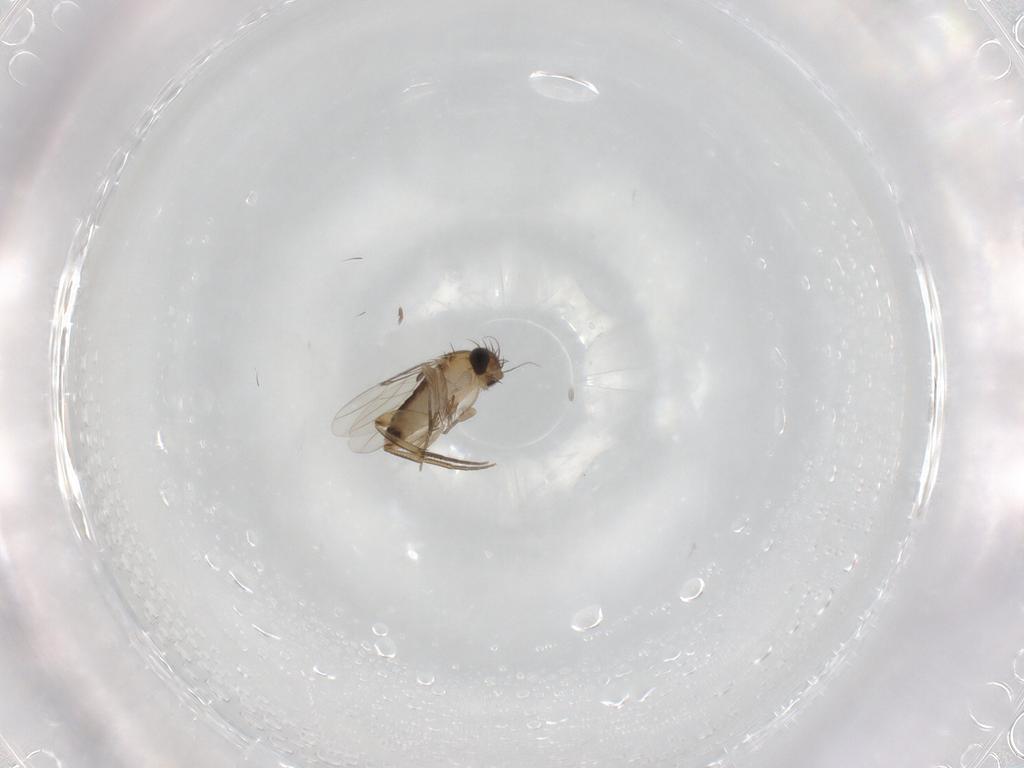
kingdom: Animalia
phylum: Arthropoda
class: Insecta
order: Diptera
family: Phoridae
